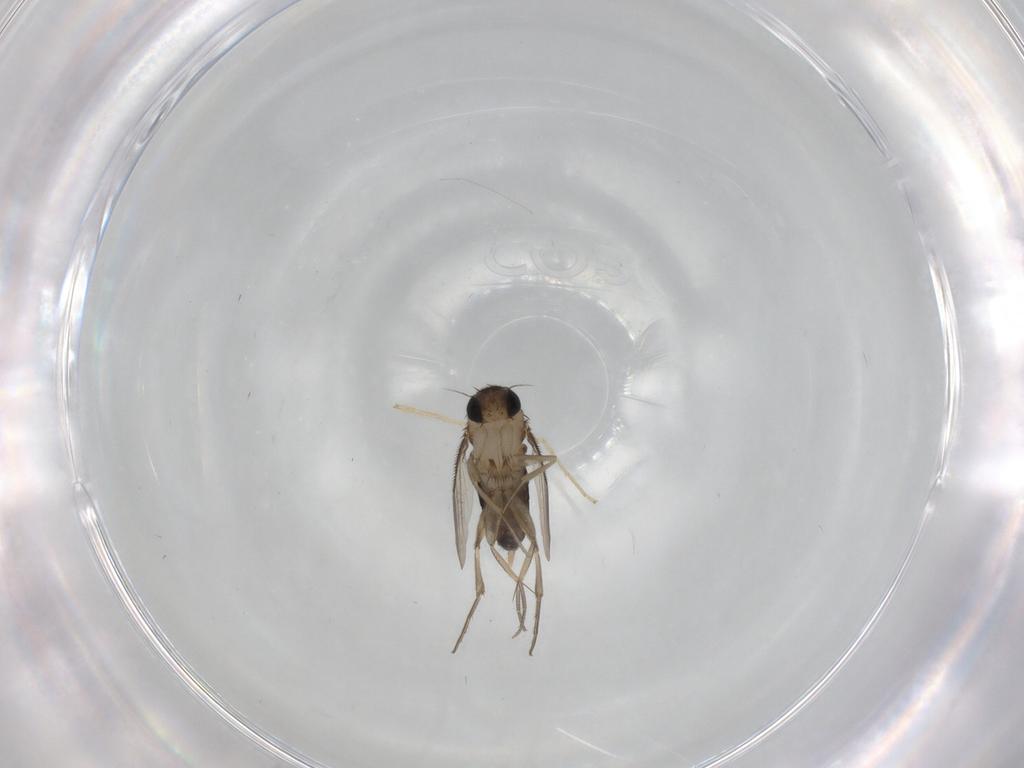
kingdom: Animalia
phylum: Arthropoda
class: Insecta
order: Diptera
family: Phoridae
